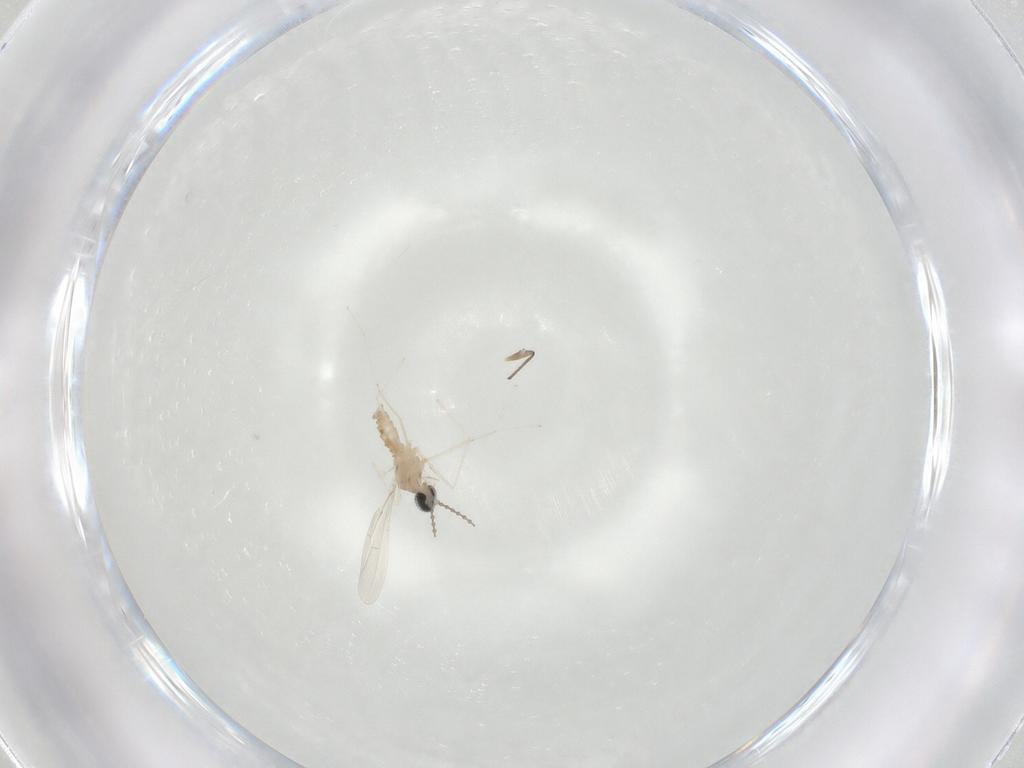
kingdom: Animalia
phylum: Arthropoda
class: Insecta
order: Diptera
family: Cecidomyiidae
